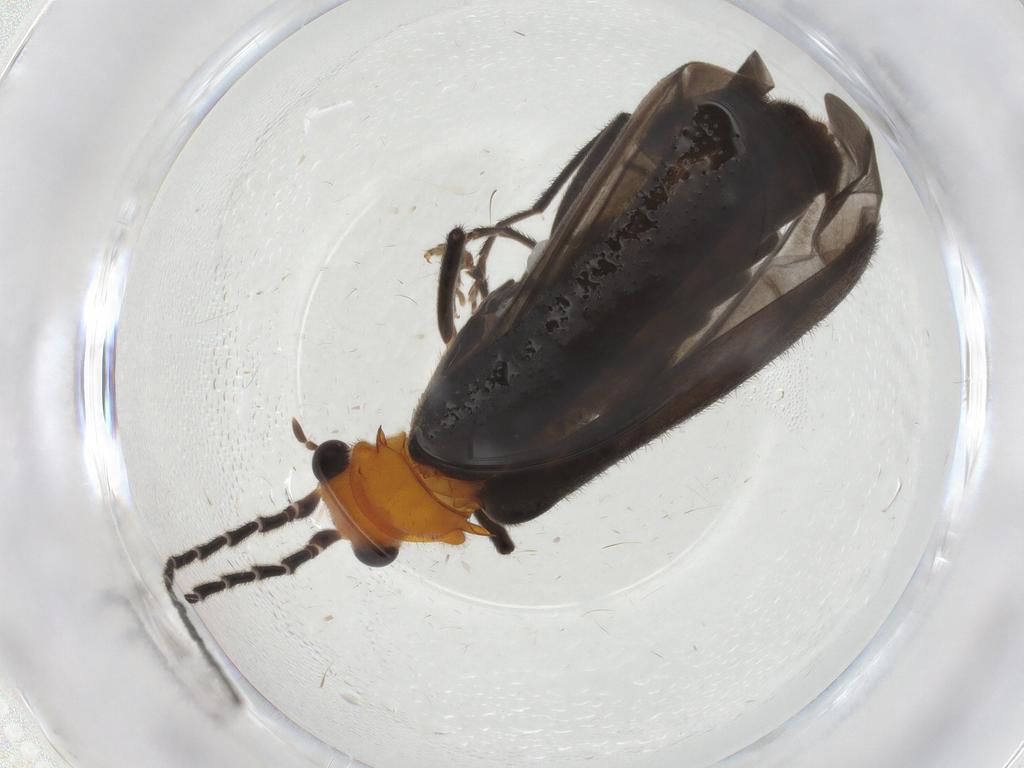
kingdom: Animalia
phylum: Arthropoda
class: Insecta
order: Coleoptera
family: Cantharidae
